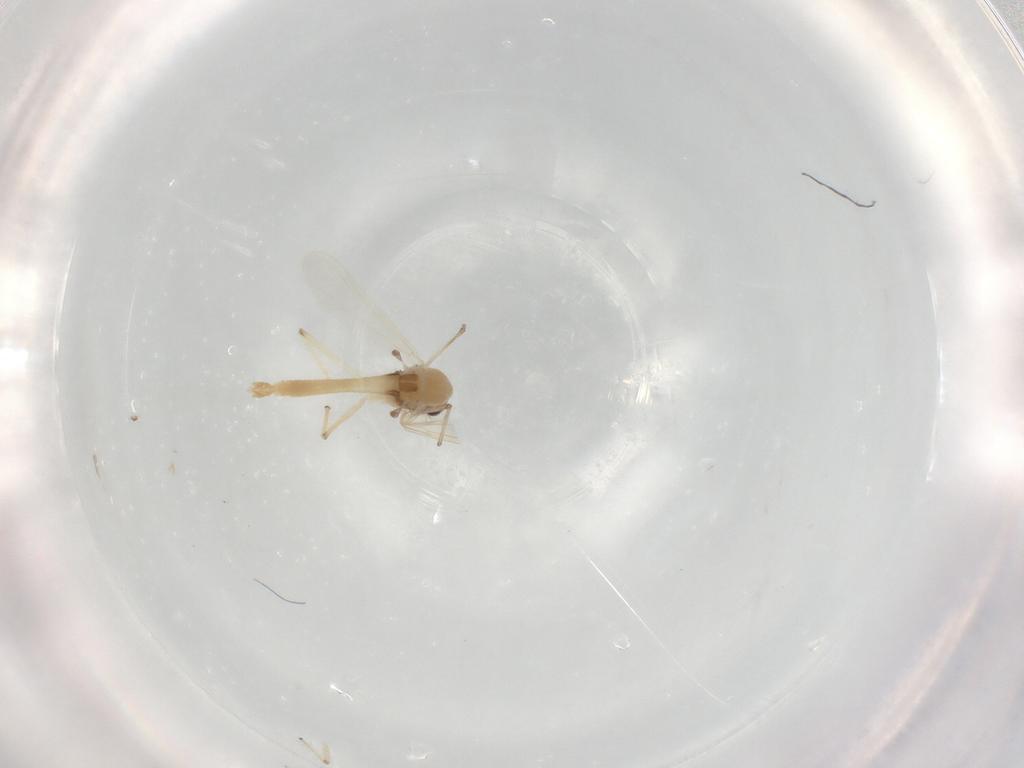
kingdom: Animalia
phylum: Arthropoda
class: Insecta
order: Diptera
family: Chironomidae
